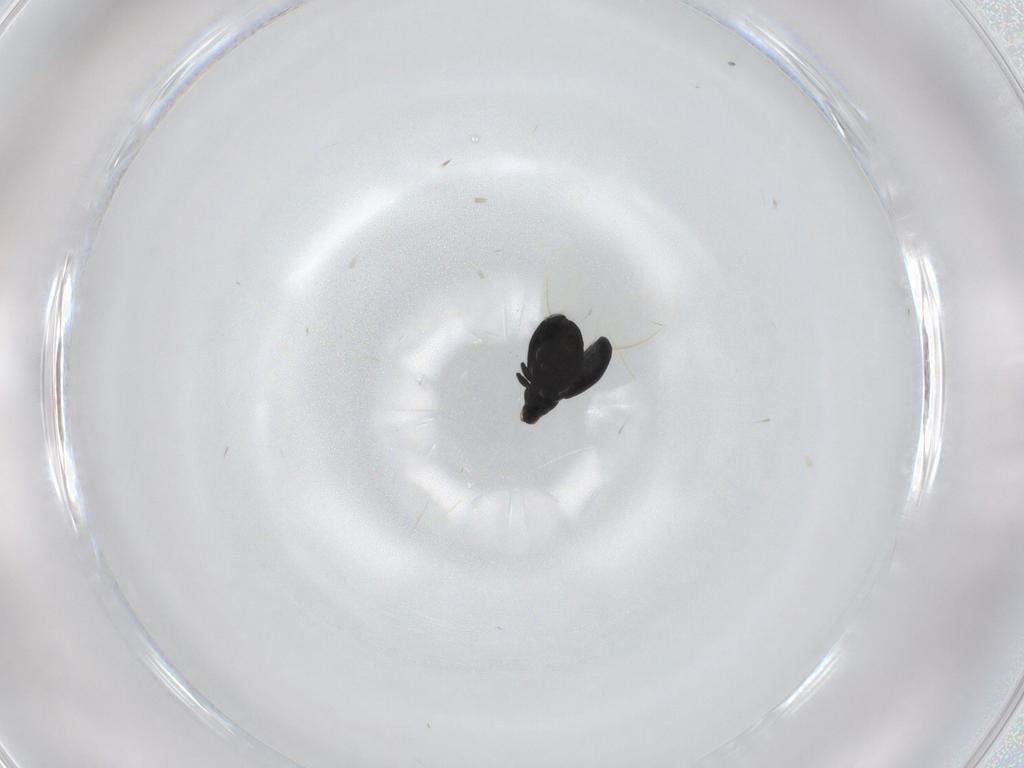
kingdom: Animalia
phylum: Arthropoda
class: Insecta
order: Coleoptera
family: Curculionidae
